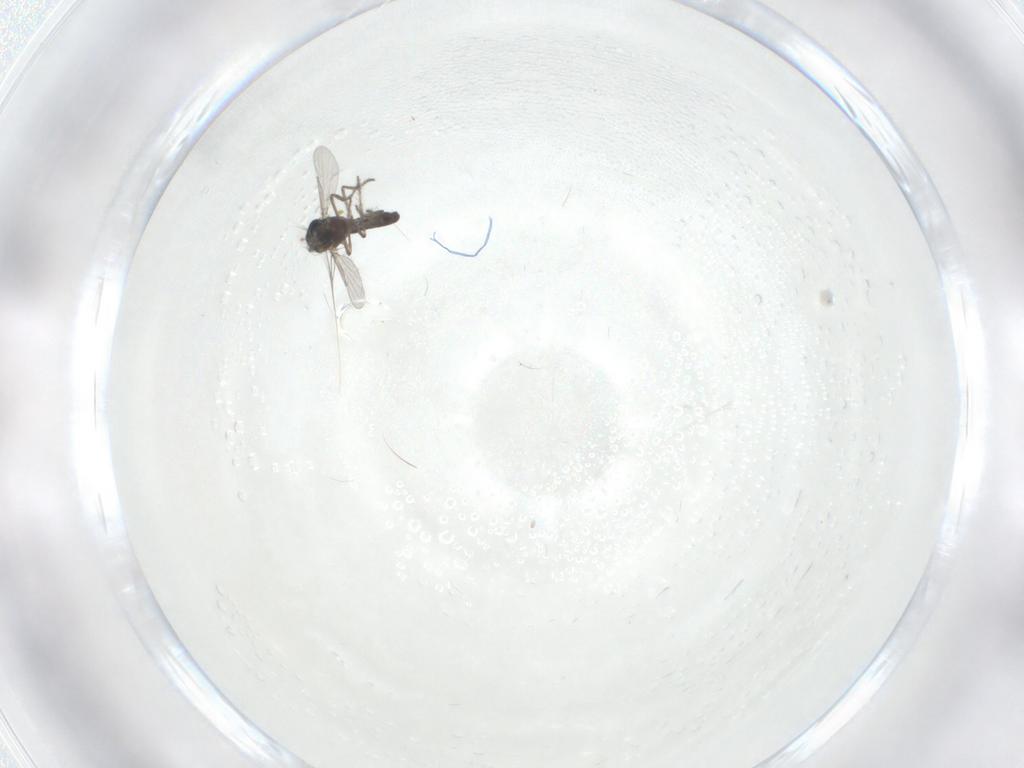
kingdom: Animalia
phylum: Arthropoda
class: Insecta
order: Diptera
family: Ceratopogonidae
